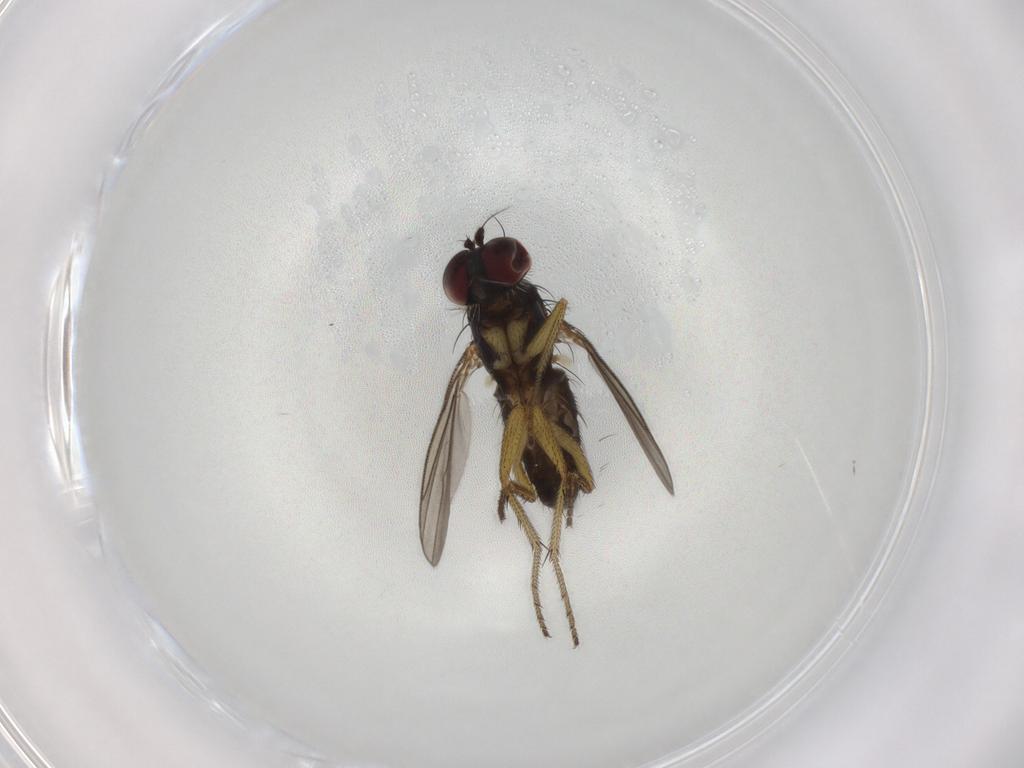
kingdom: Animalia
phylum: Arthropoda
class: Insecta
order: Diptera
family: Dolichopodidae
